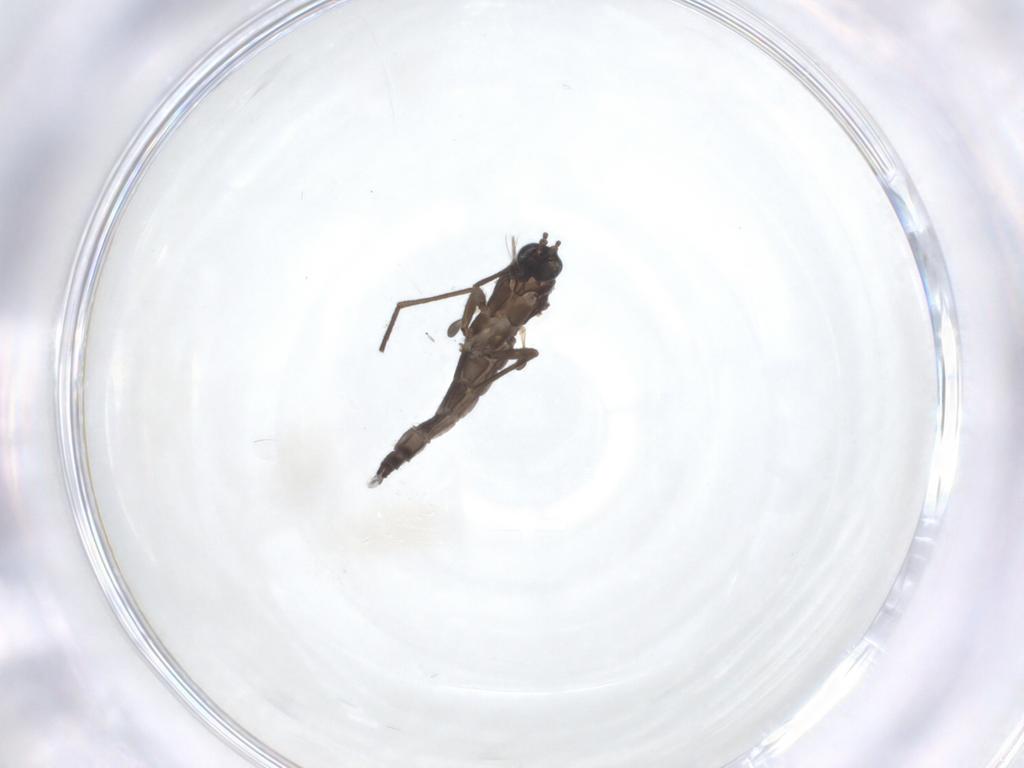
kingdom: Animalia
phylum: Arthropoda
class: Insecta
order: Diptera
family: Sciaridae
